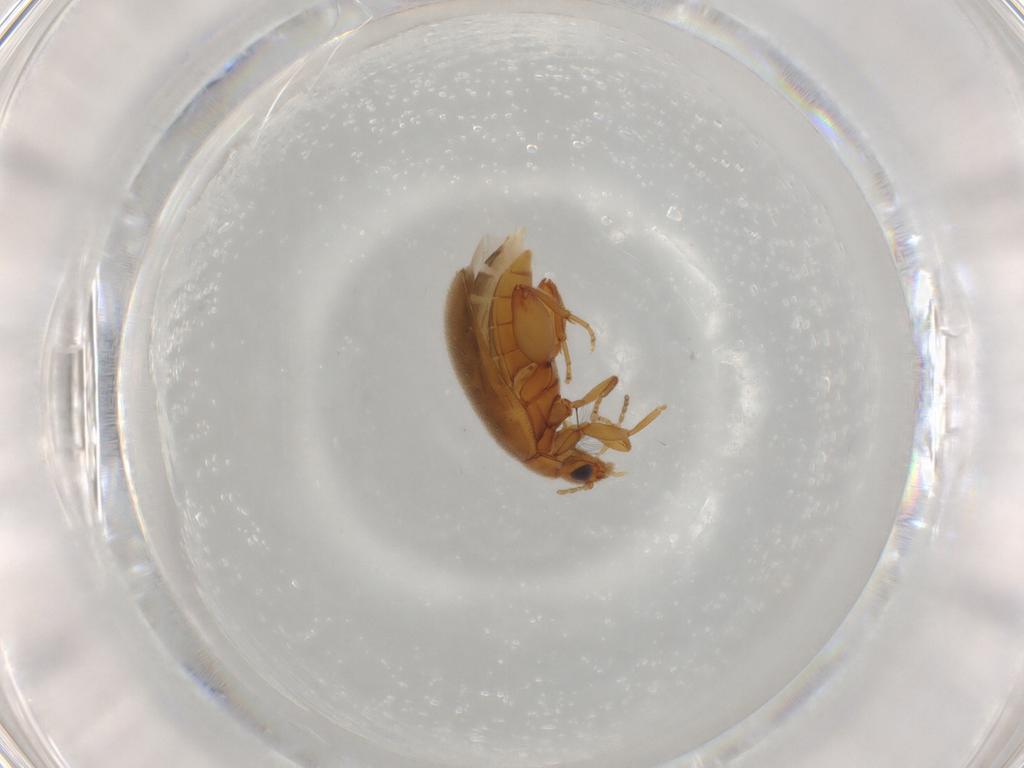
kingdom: Animalia
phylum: Arthropoda
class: Insecta
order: Coleoptera
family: Scirtidae
